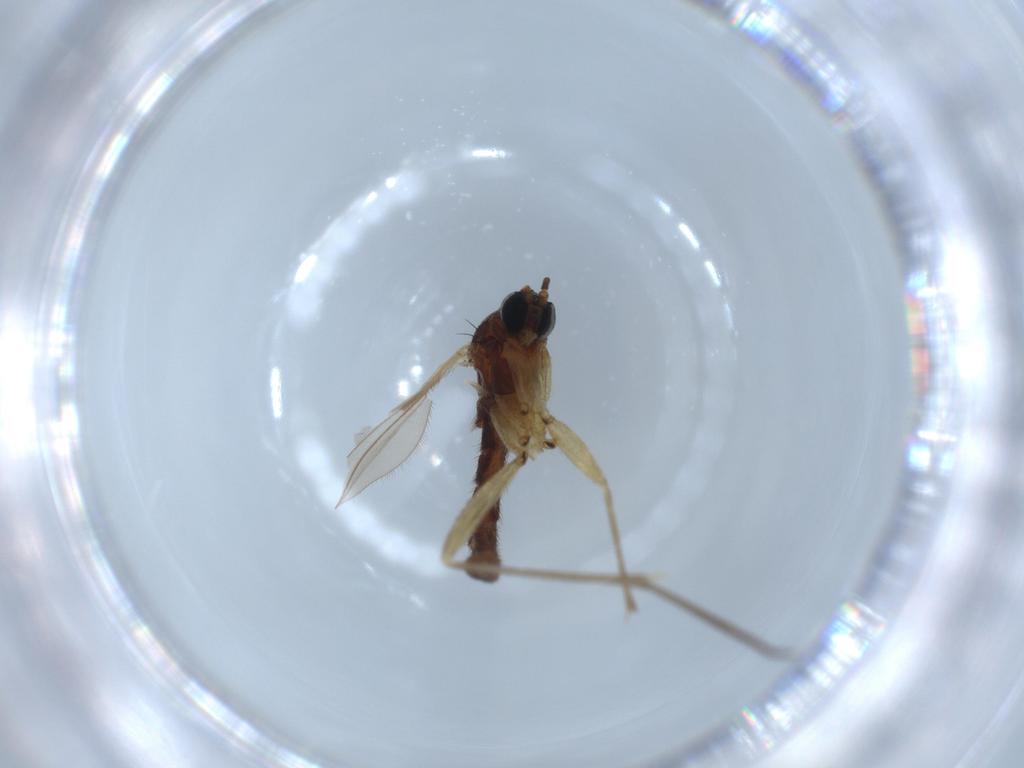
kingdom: Animalia
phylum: Arthropoda
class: Insecta
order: Diptera
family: Sciaridae
